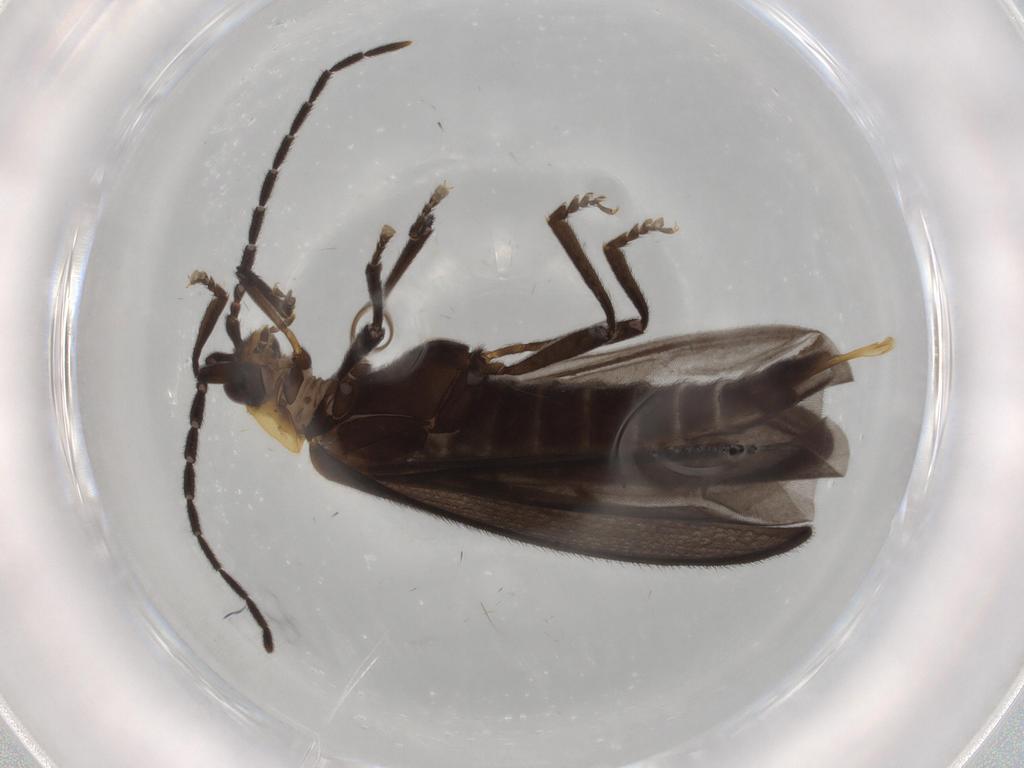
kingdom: Animalia
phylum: Arthropoda
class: Insecta
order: Coleoptera
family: Lycidae
